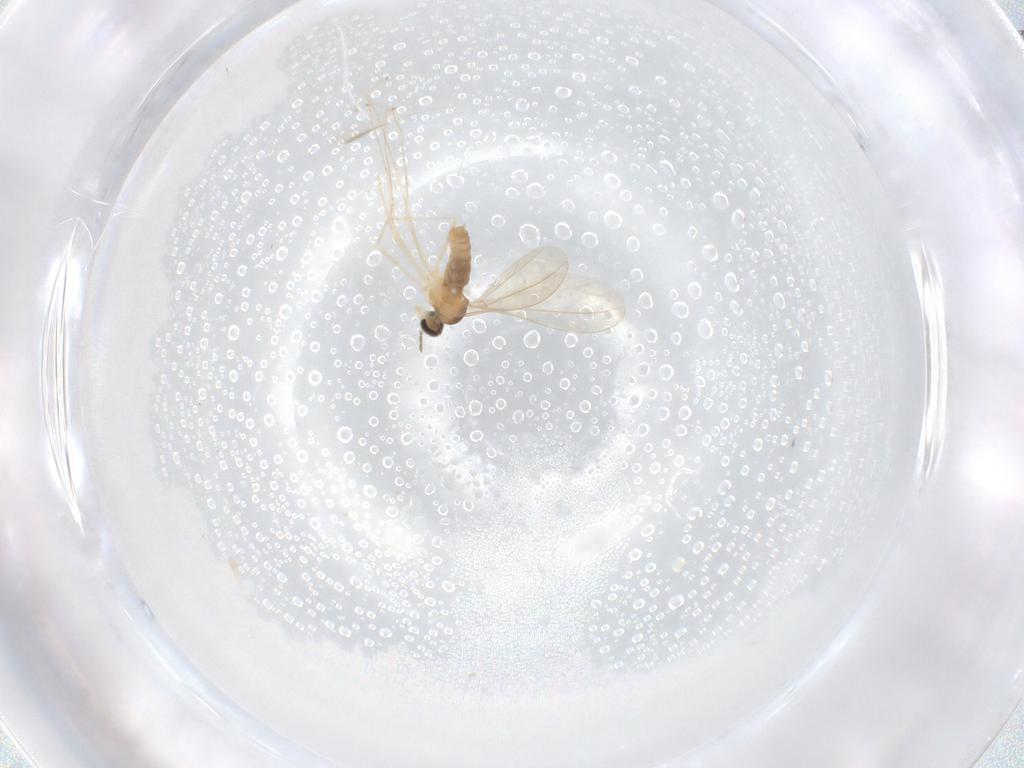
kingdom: Animalia
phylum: Arthropoda
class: Insecta
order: Diptera
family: Cecidomyiidae
